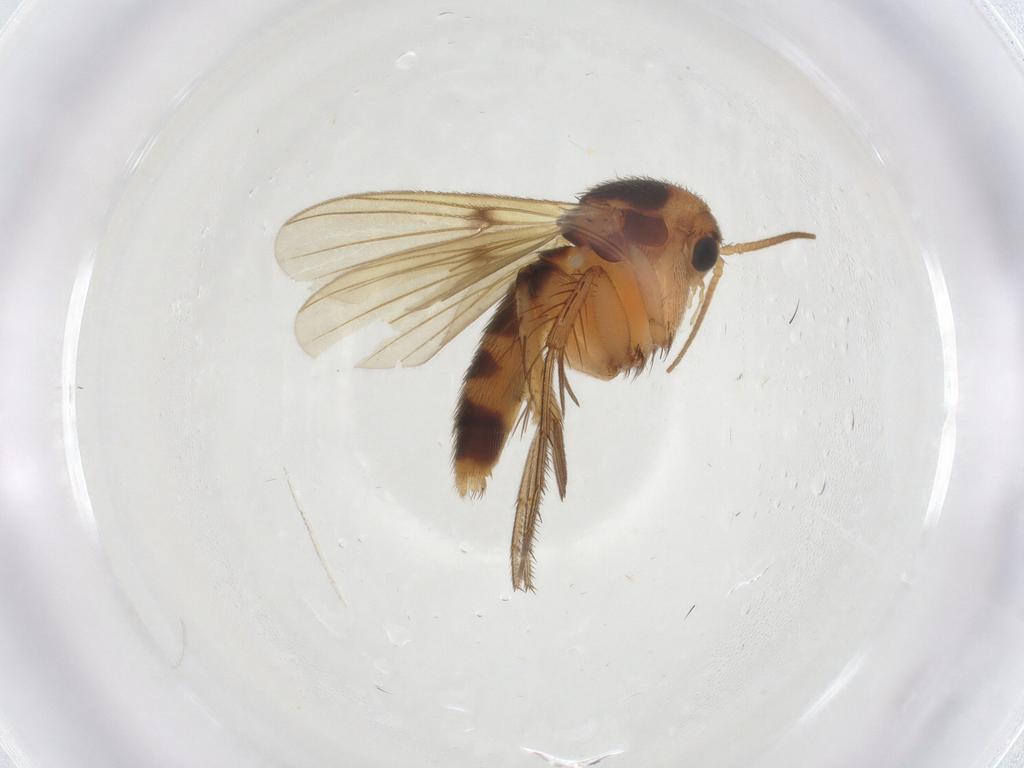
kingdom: Animalia
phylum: Arthropoda
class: Insecta
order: Diptera
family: Mycetophilidae
